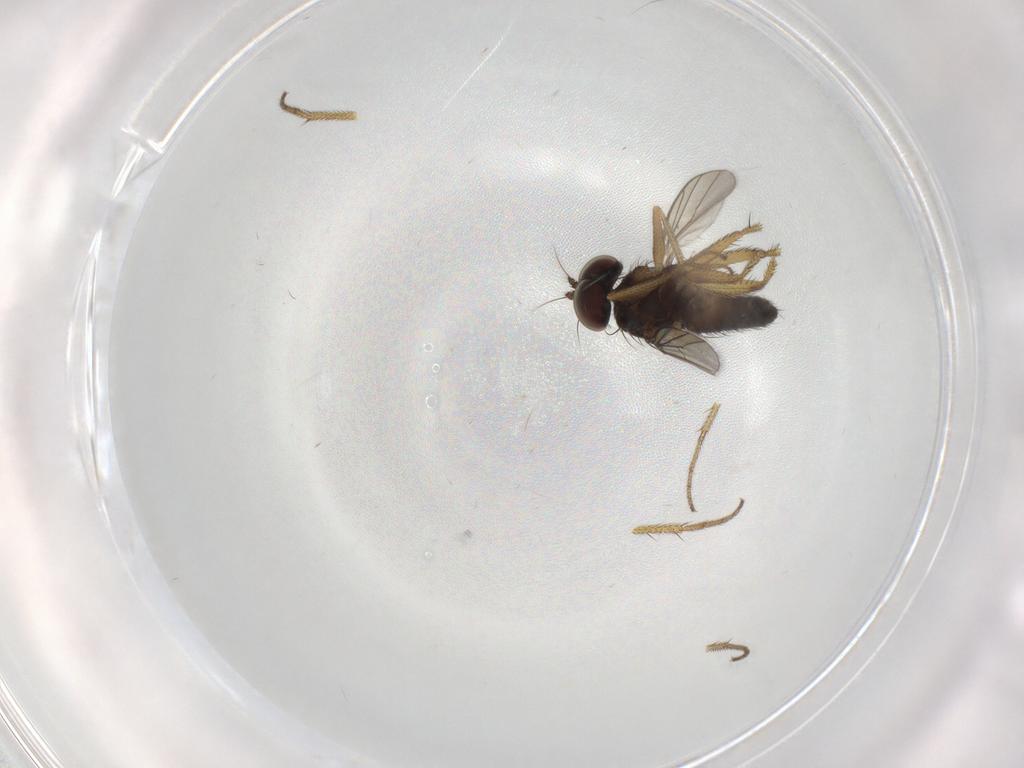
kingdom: Animalia
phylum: Arthropoda
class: Insecta
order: Diptera
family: Dolichopodidae
